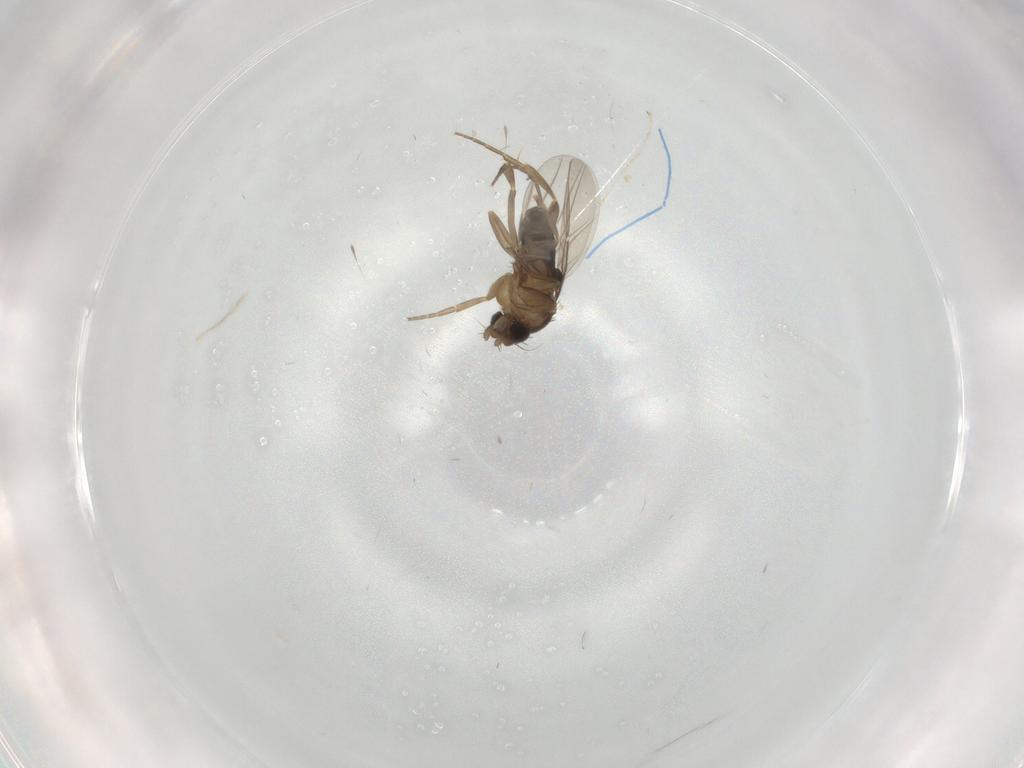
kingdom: Animalia
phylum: Arthropoda
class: Insecta
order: Diptera
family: Phoridae
